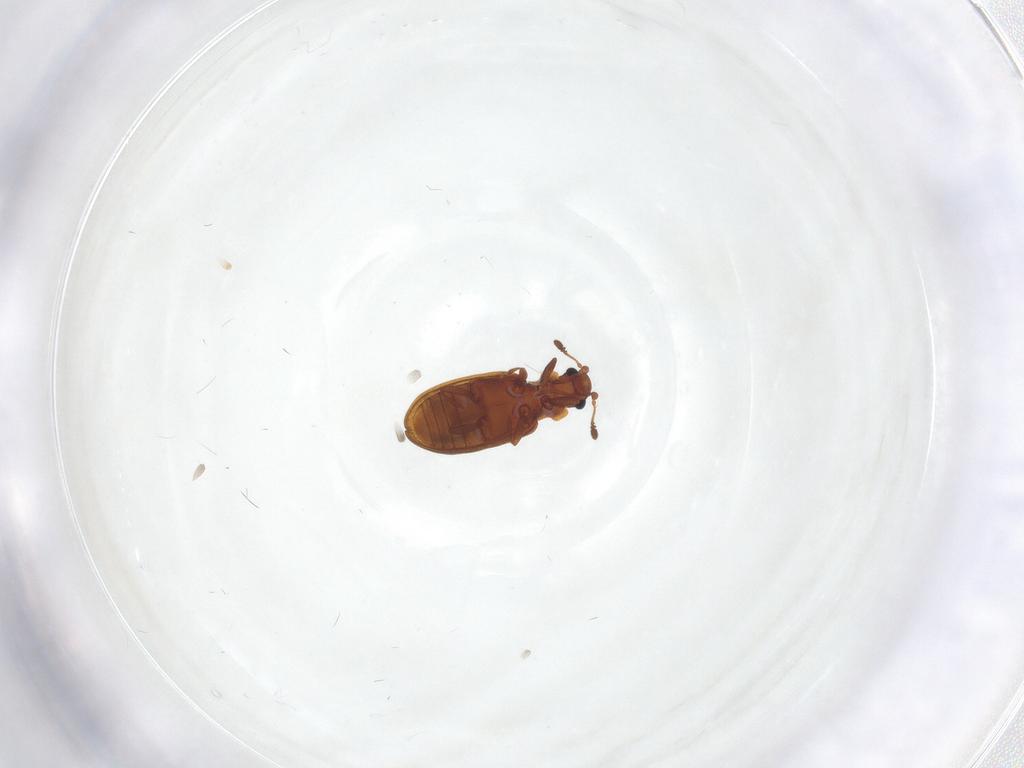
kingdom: Animalia
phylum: Arthropoda
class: Insecta
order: Coleoptera
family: Latridiidae
